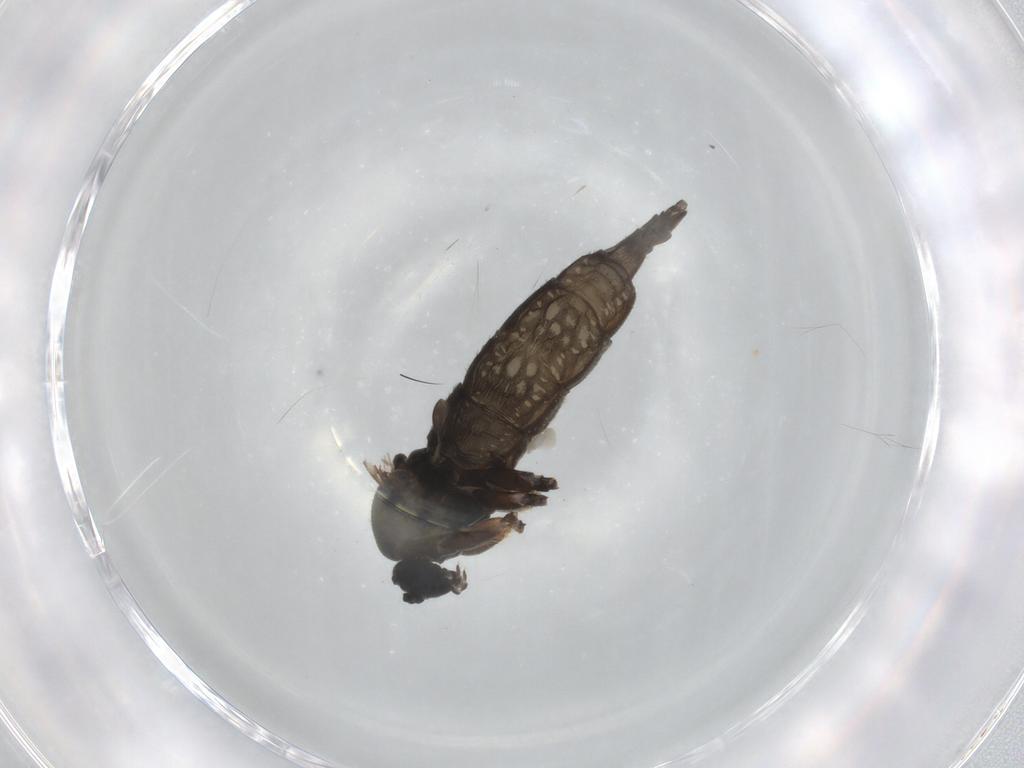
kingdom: Animalia
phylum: Arthropoda
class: Insecta
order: Diptera
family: Sciaridae
